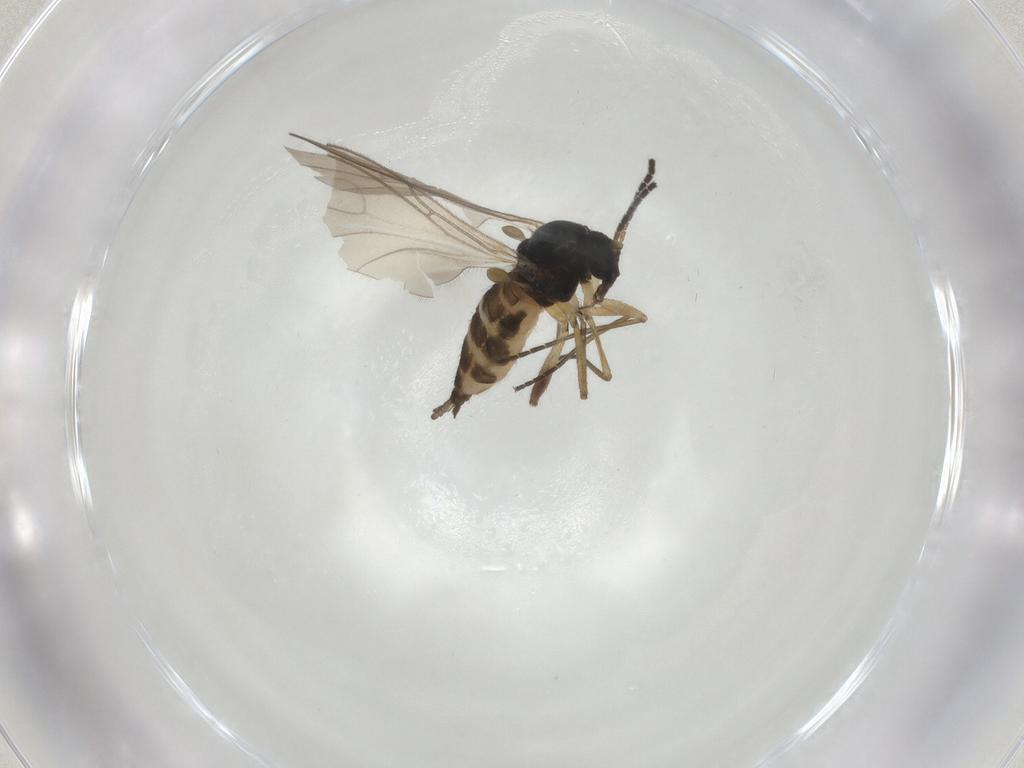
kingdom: Animalia
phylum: Arthropoda
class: Insecta
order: Diptera
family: Sciaridae
